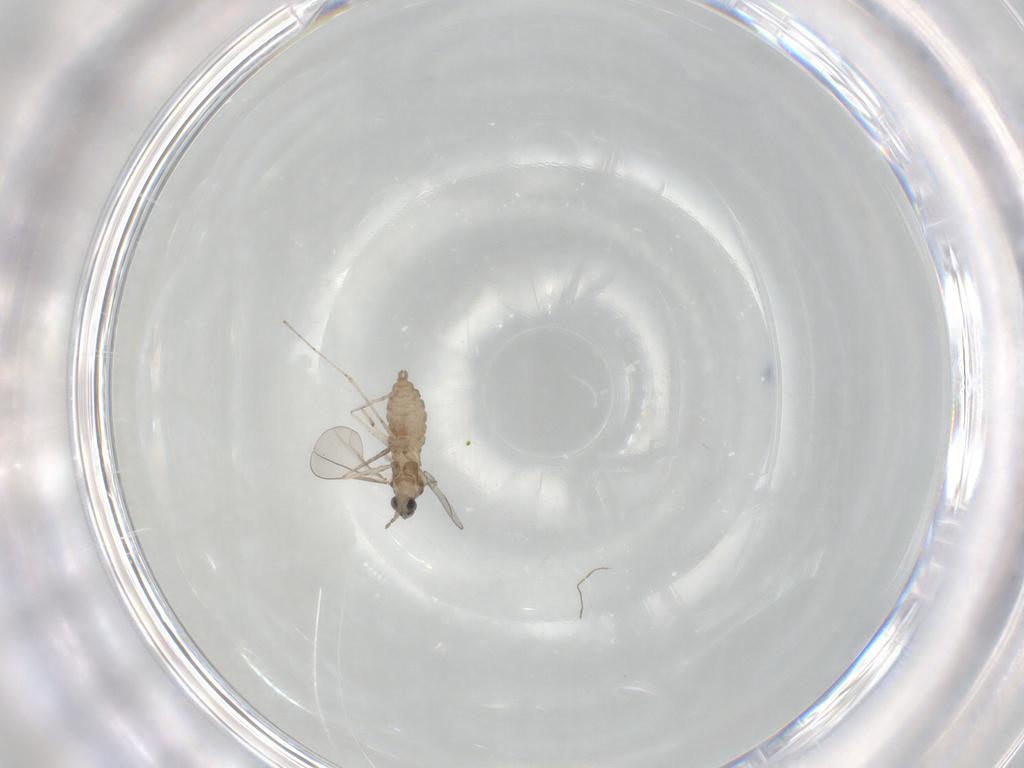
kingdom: Animalia
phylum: Arthropoda
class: Insecta
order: Diptera
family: Cecidomyiidae
